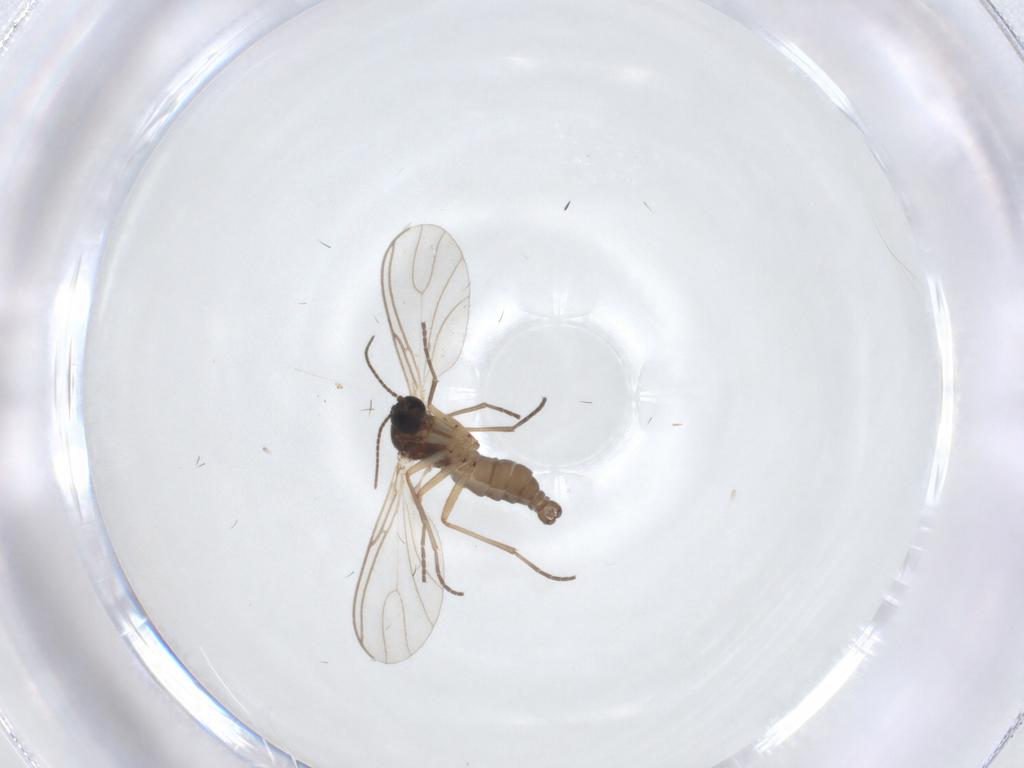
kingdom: Animalia
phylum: Arthropoda
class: Insecta
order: Diptera
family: Sciaridae
